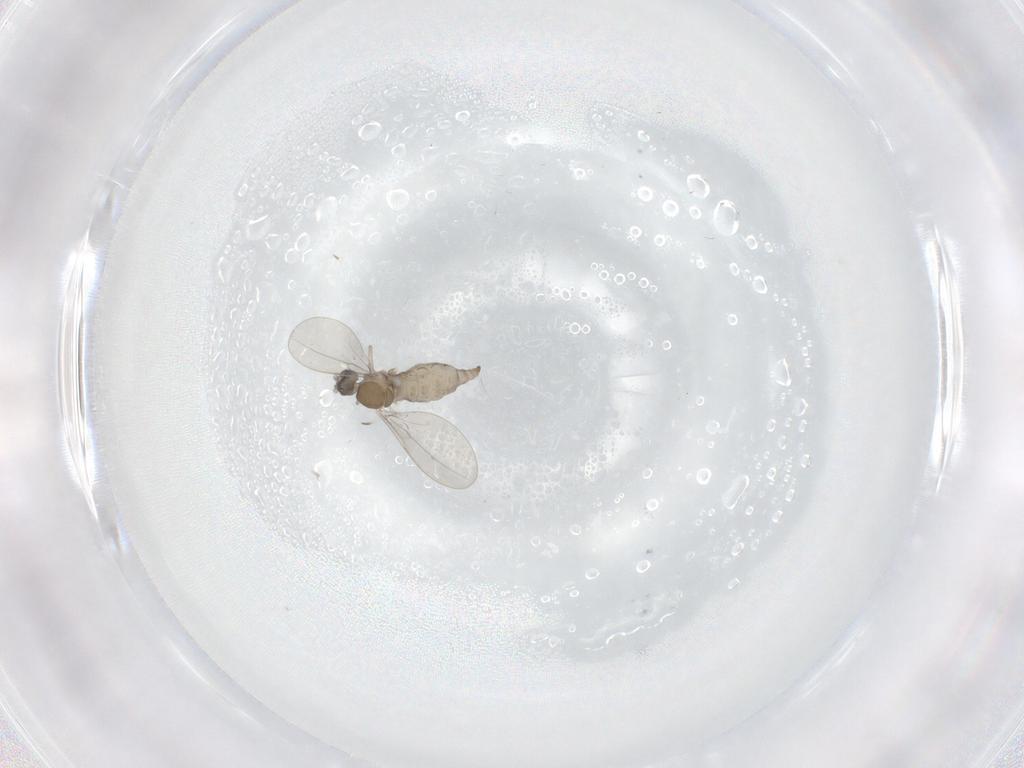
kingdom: Animalia
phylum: Arthropoda
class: Insecta
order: Diptera
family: Cecidomyiidae
